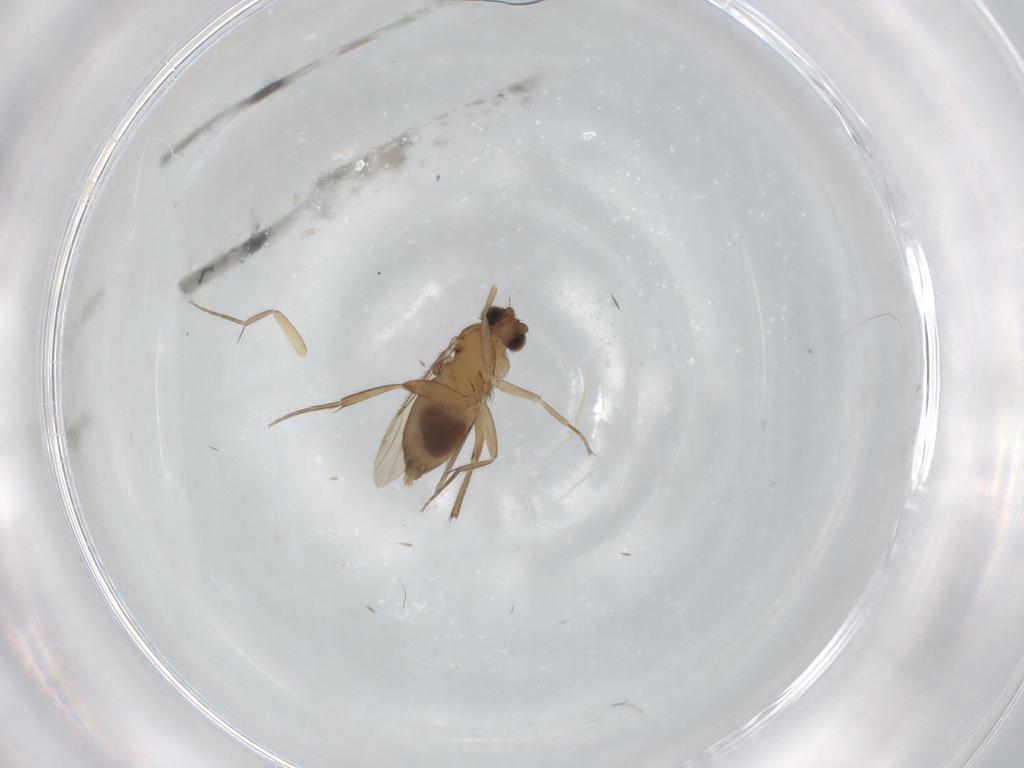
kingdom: Animalia
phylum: Arthropoda
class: Insecta
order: Diptera
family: Phoridae
